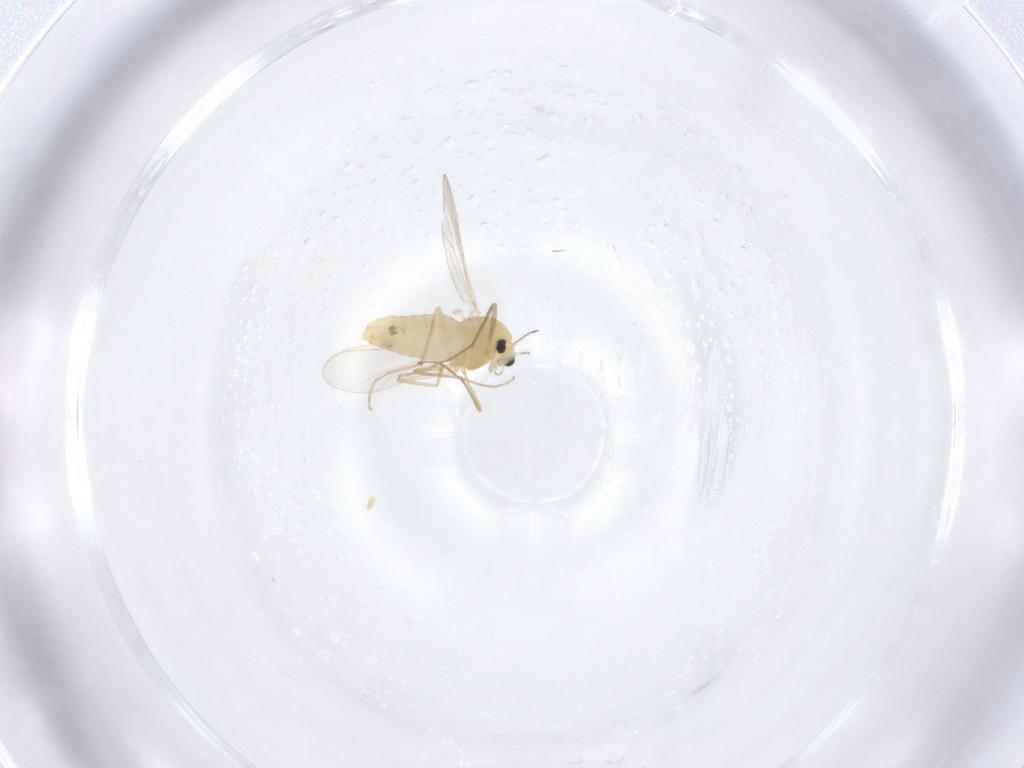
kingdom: Animalia
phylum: Arthropoda
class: Insecta
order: Diptera
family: Chironomidae
